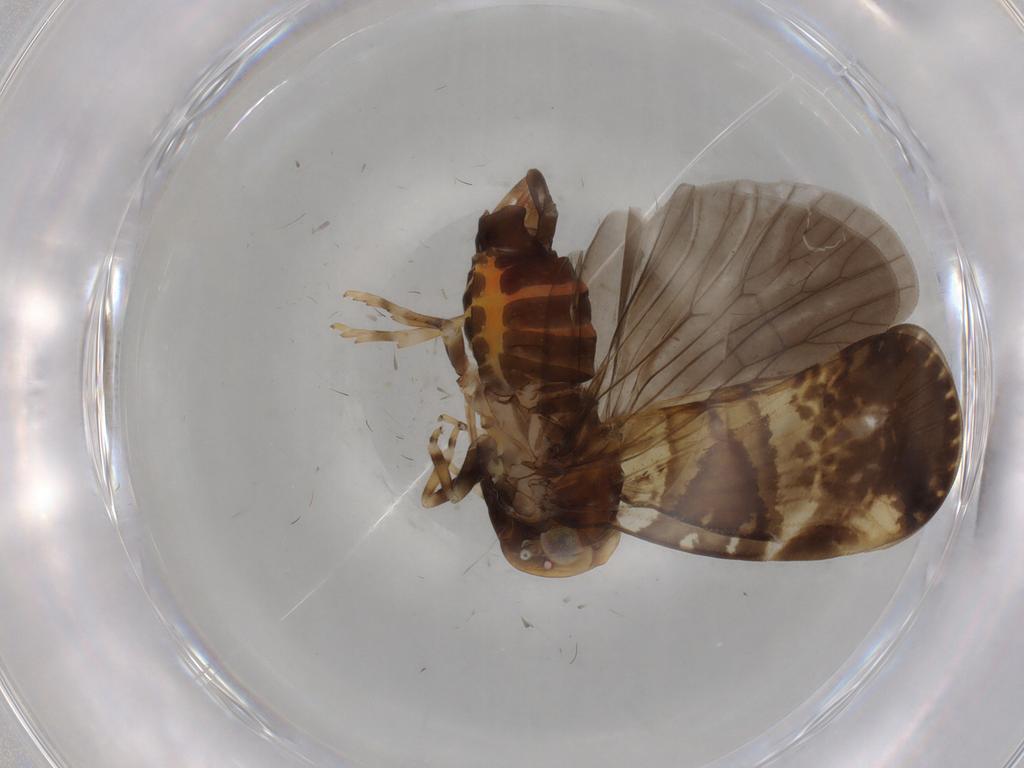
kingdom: Animalia
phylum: Arthropoda
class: Insecta
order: Hemiptera
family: Cixiidae
